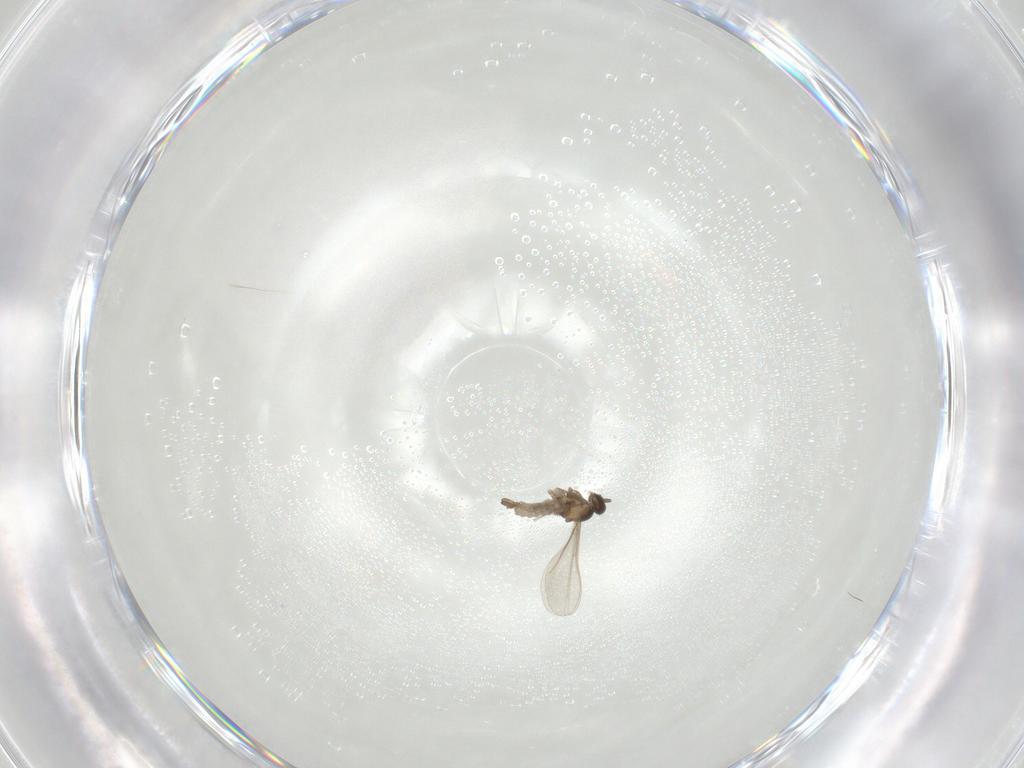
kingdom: Animalia
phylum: Arthropoda
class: Insecta
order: Diptera
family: Cecidomyiidae
